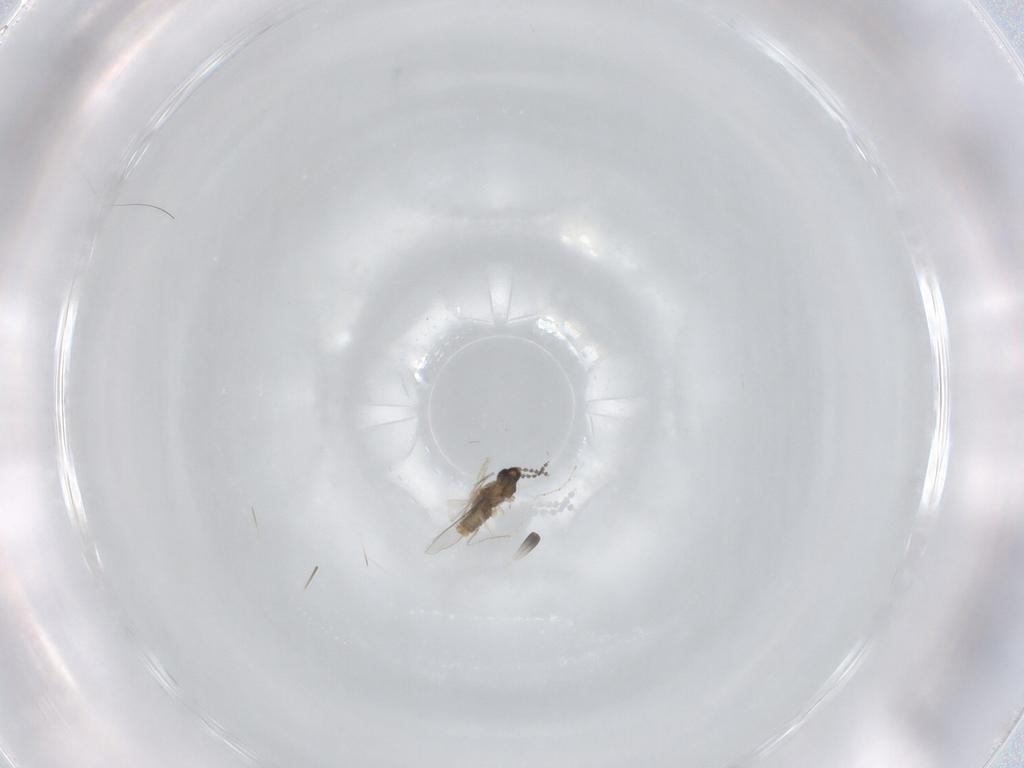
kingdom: Animalia
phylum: Arthropoda
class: Insecta
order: Diptera
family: Cecidomyiidae
